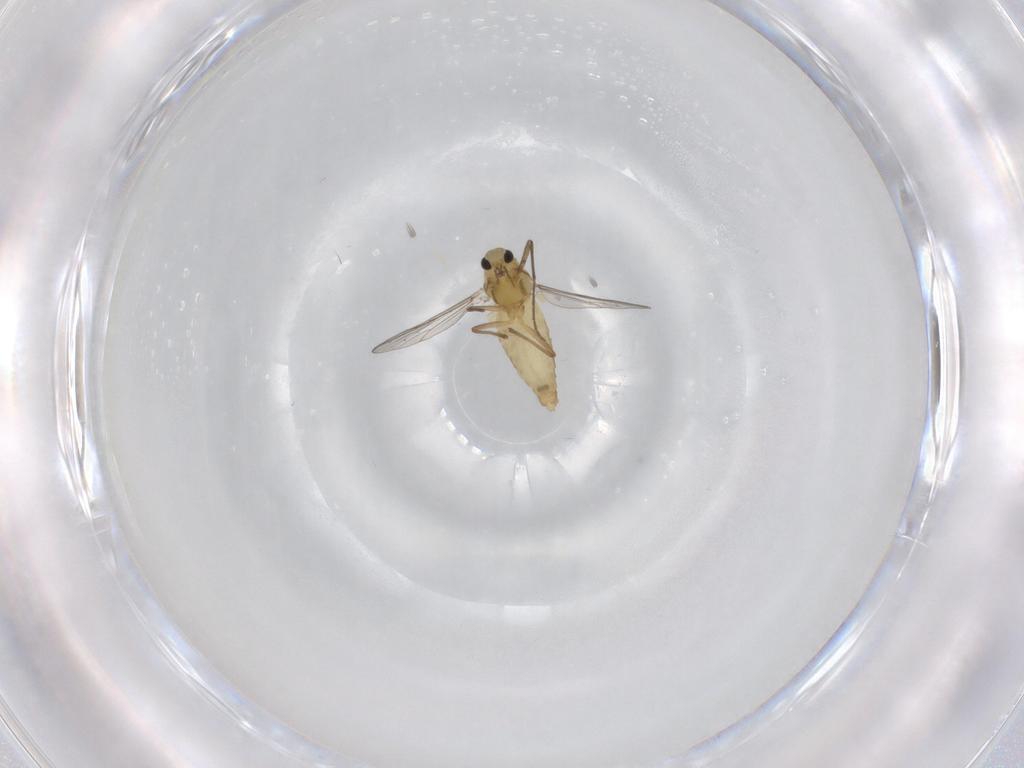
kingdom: Animalia
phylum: Arthropoda
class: Insecta
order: Diptera
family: Chironomidae
